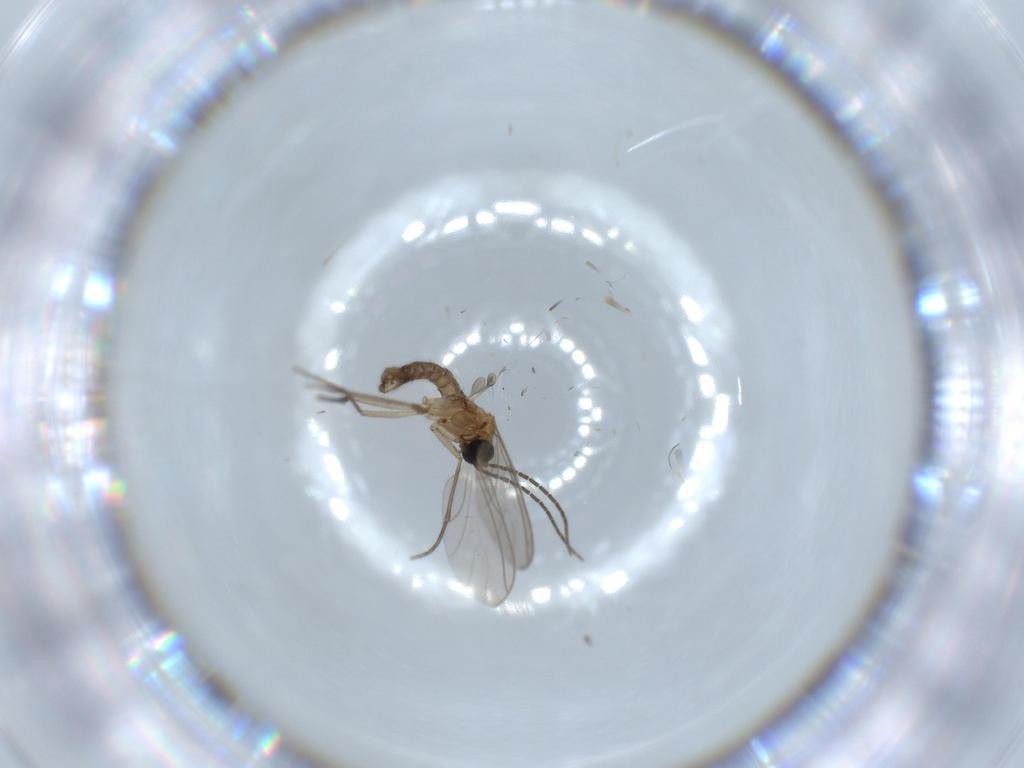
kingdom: Animalia
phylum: Arthropoda
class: Insecta
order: Diptera
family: Sciaridae
